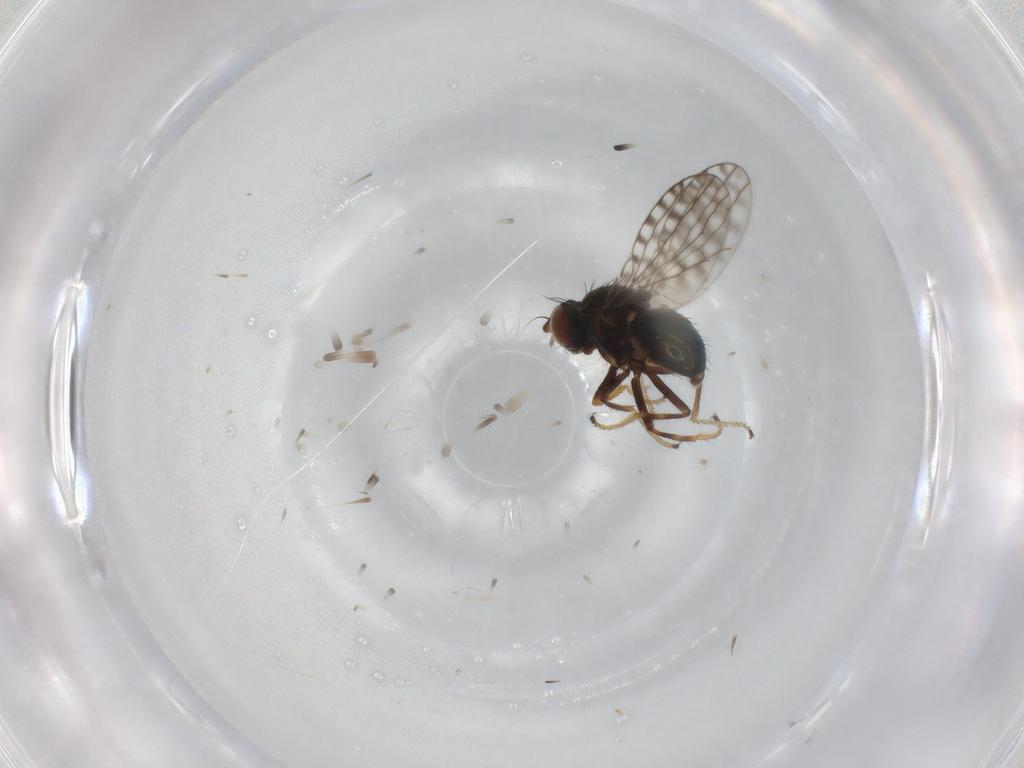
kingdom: Animalia
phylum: Arthropoda
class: Insecta
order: Diptera
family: Ephydridae
